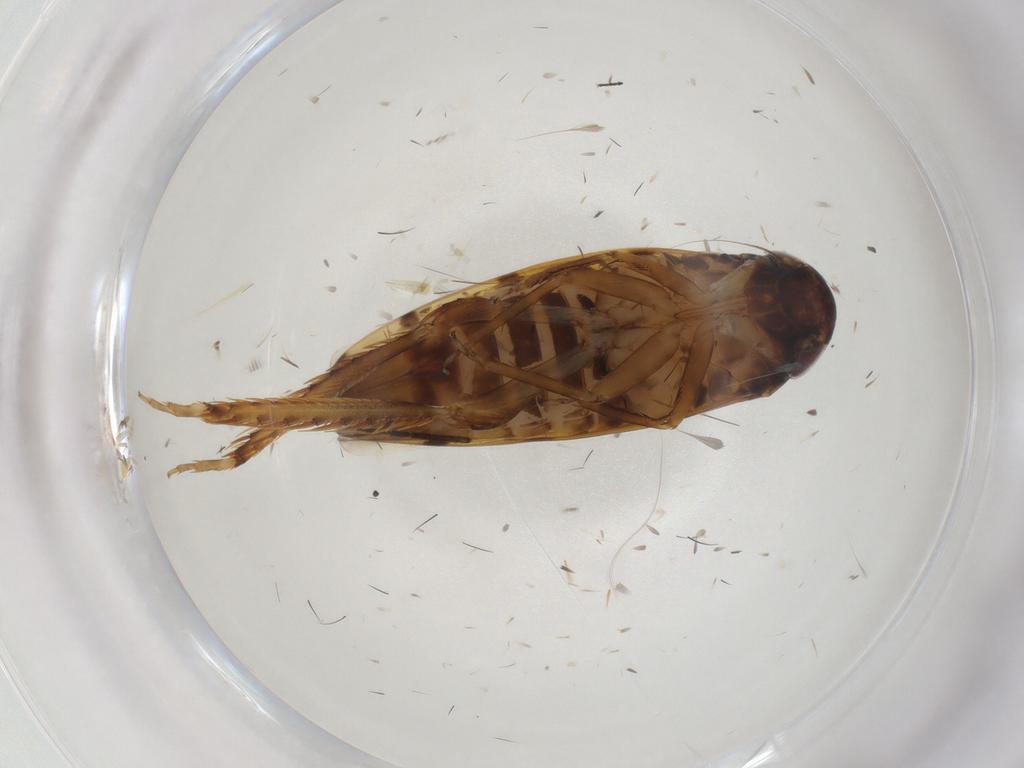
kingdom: Animalia
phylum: Arthropoda
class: Insecta
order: Hemiptera
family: Cicadellidae
